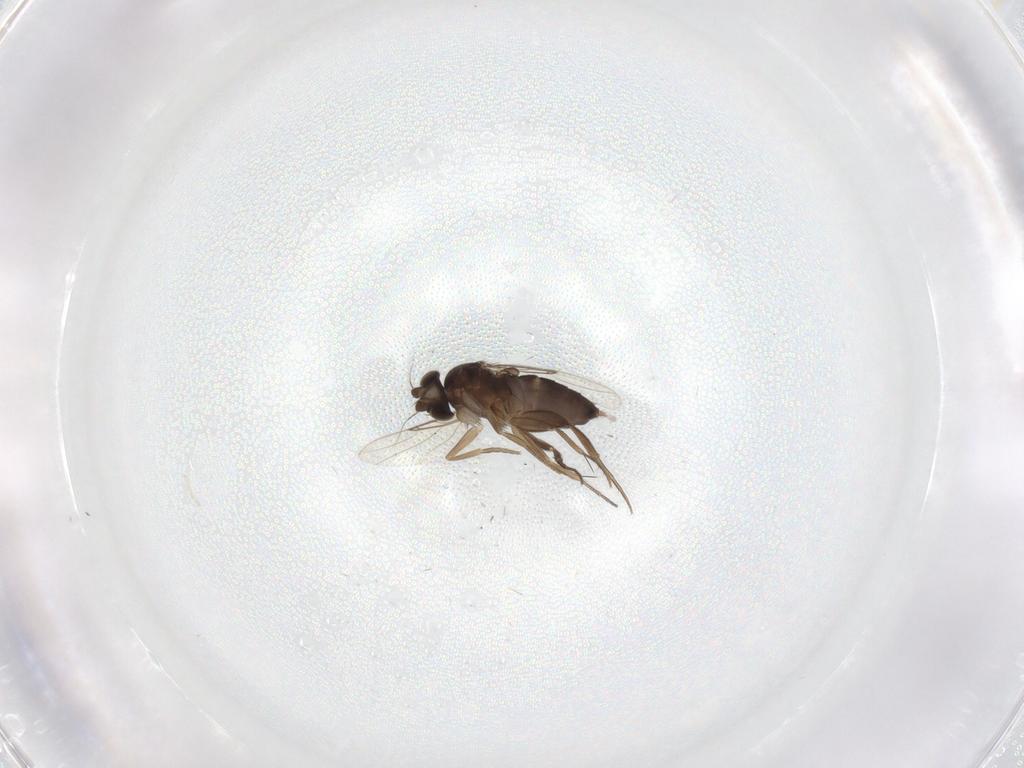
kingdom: Animalia
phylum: Arthropoda
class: Insecta
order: Diptera
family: Phoridae
